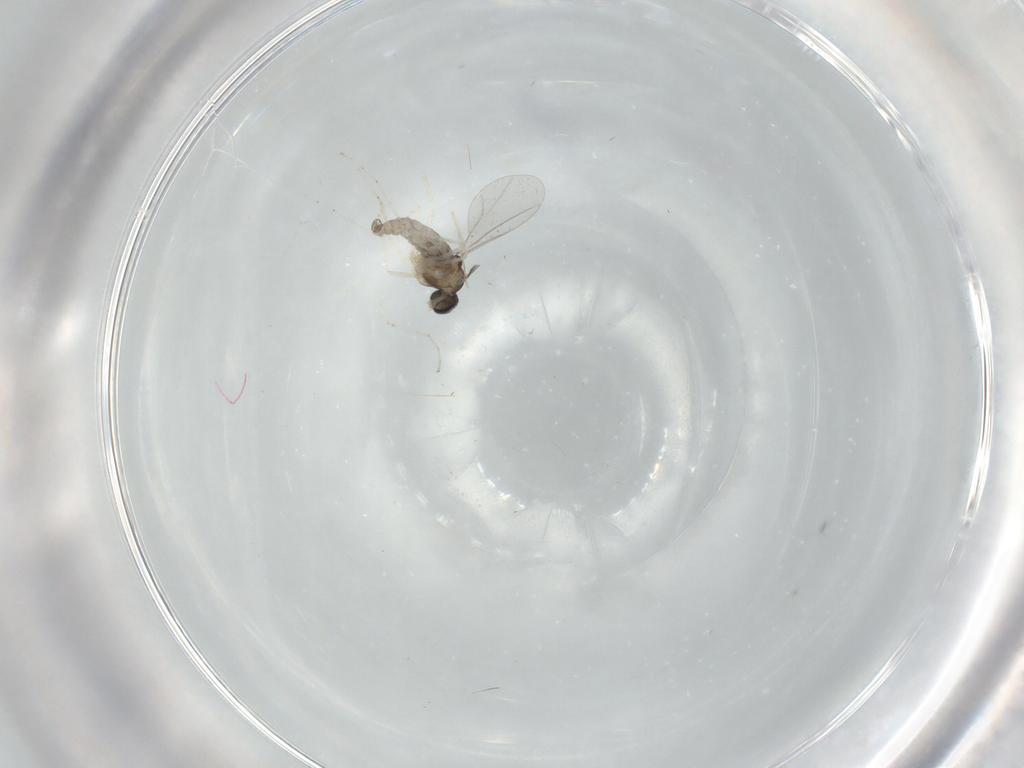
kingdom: Animalia
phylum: Arthropoda
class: Insecta
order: Diptera
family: Cecidomyiidae
